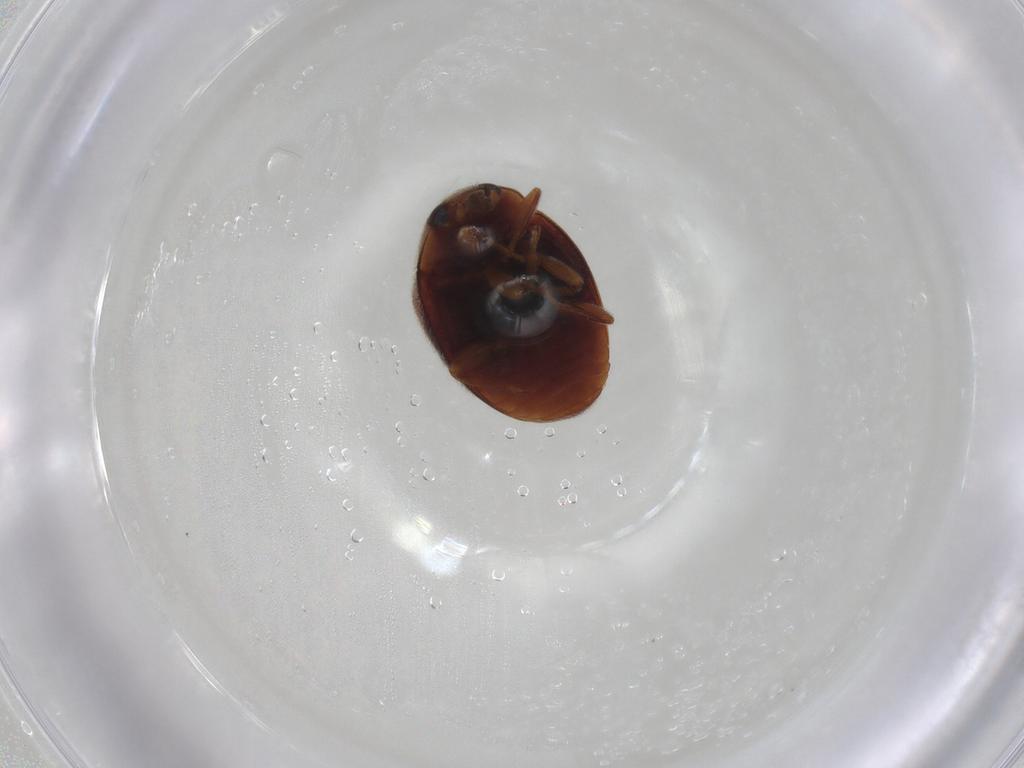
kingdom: Animalia
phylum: Arthropoda
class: Insecta
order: Coleoptera
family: Coccinellidae
